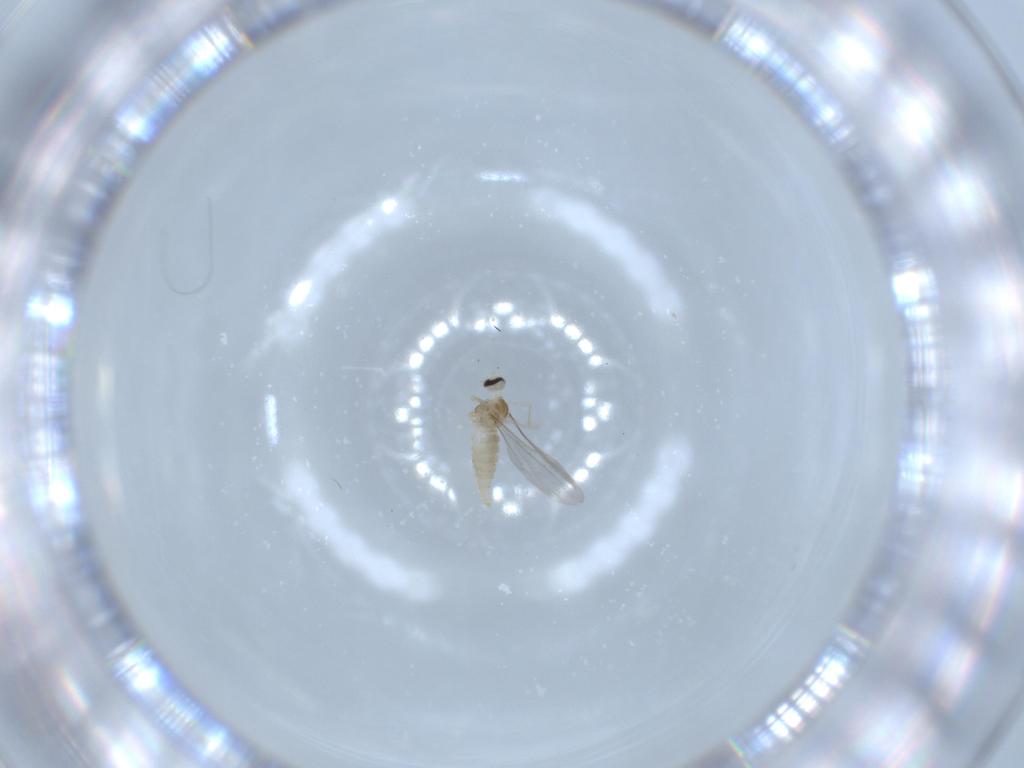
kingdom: Animalia
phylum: Arthropoda
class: Insecta
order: Diptera
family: Cecidomyiidae
